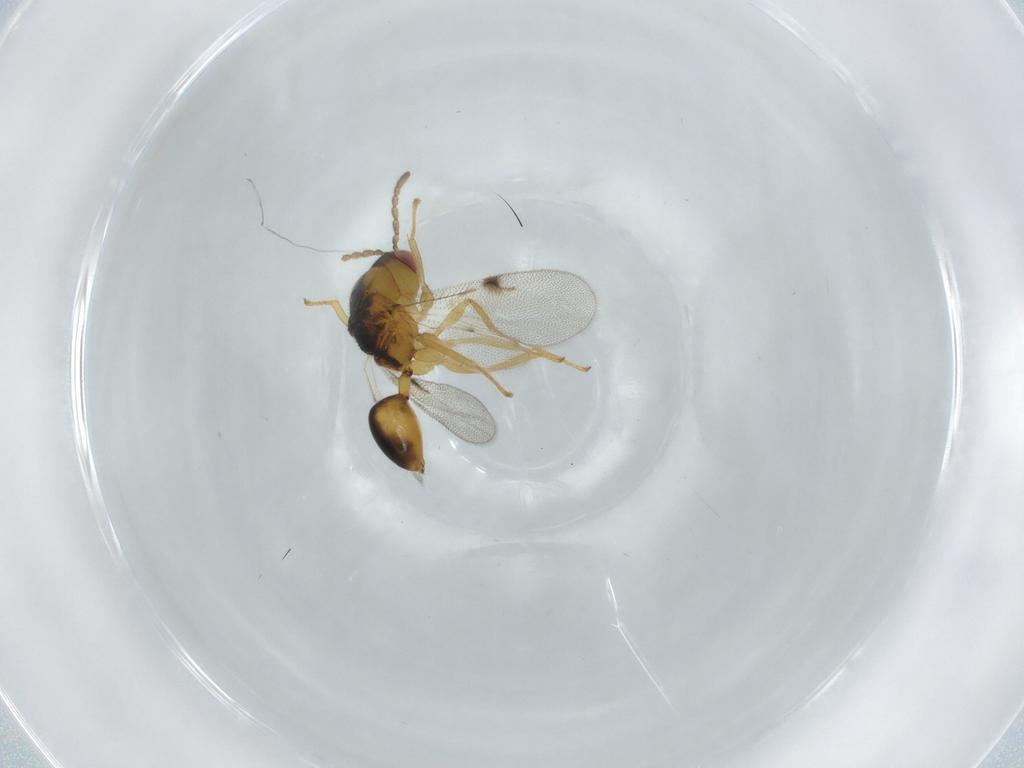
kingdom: Animalia
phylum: Arthropoda
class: Insecta
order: Hymenoptera
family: Eurytomidae
